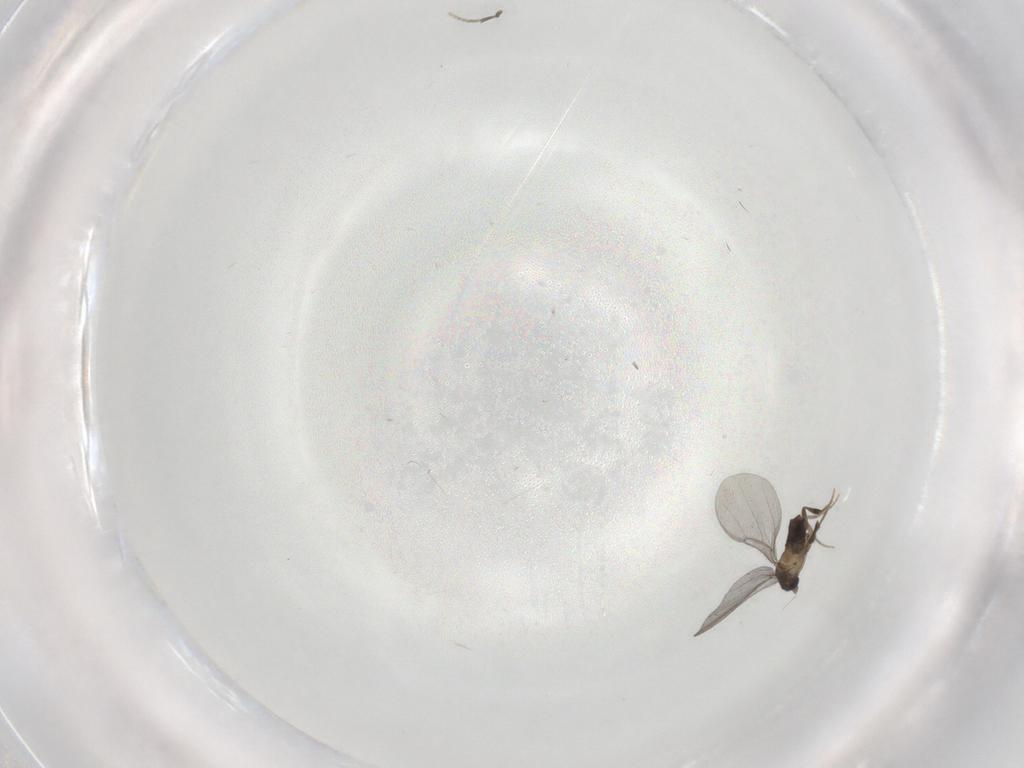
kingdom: Animalia
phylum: Arthropoda
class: Insecta
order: Diptera
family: Phoridae
